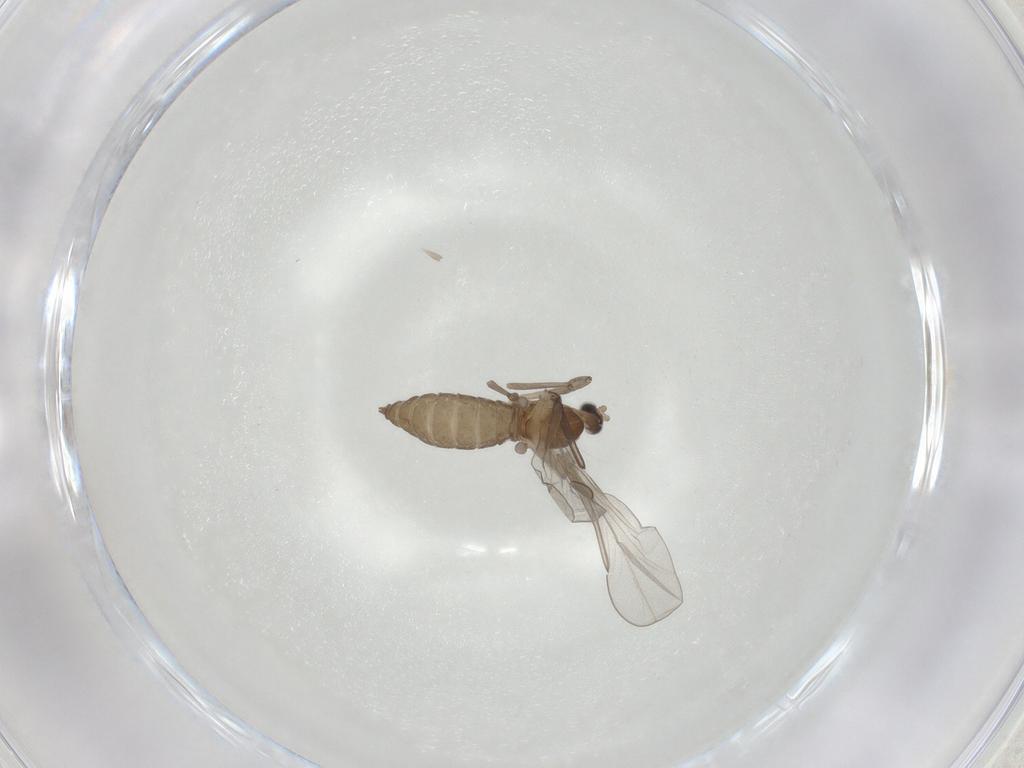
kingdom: Animalia
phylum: Arthropoda
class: Insecta
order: Diptera
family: Cecidomyiidae
